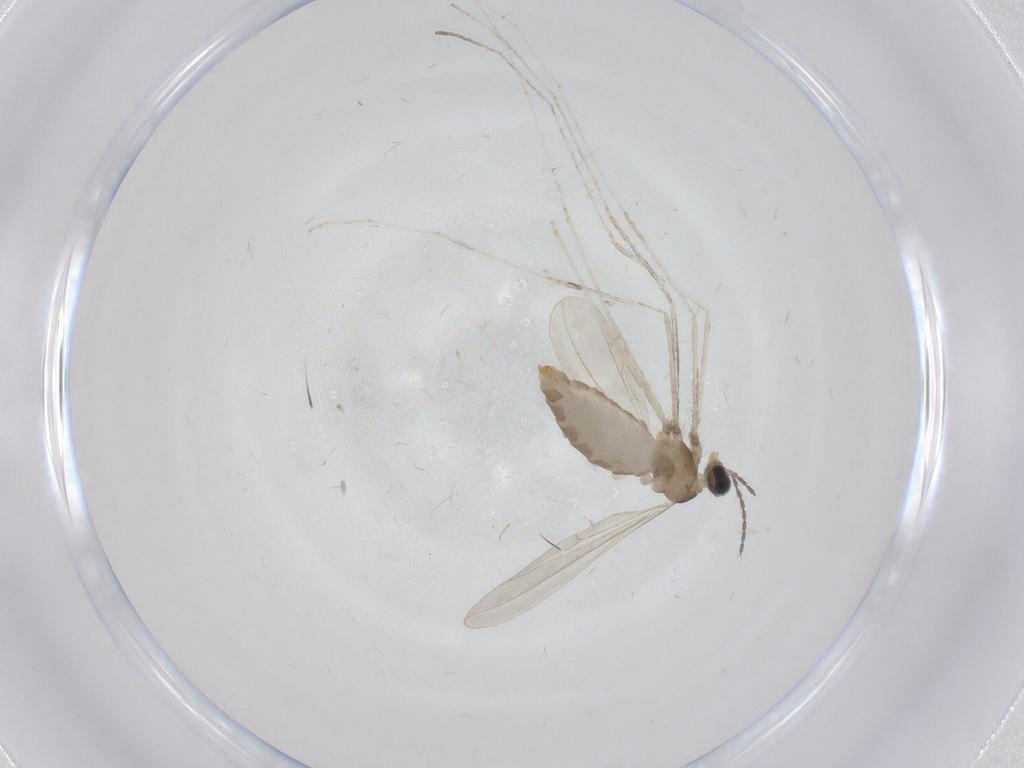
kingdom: Animalia
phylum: Arthropoda
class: Insecta
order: Diptera
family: Cecidomyiidae
